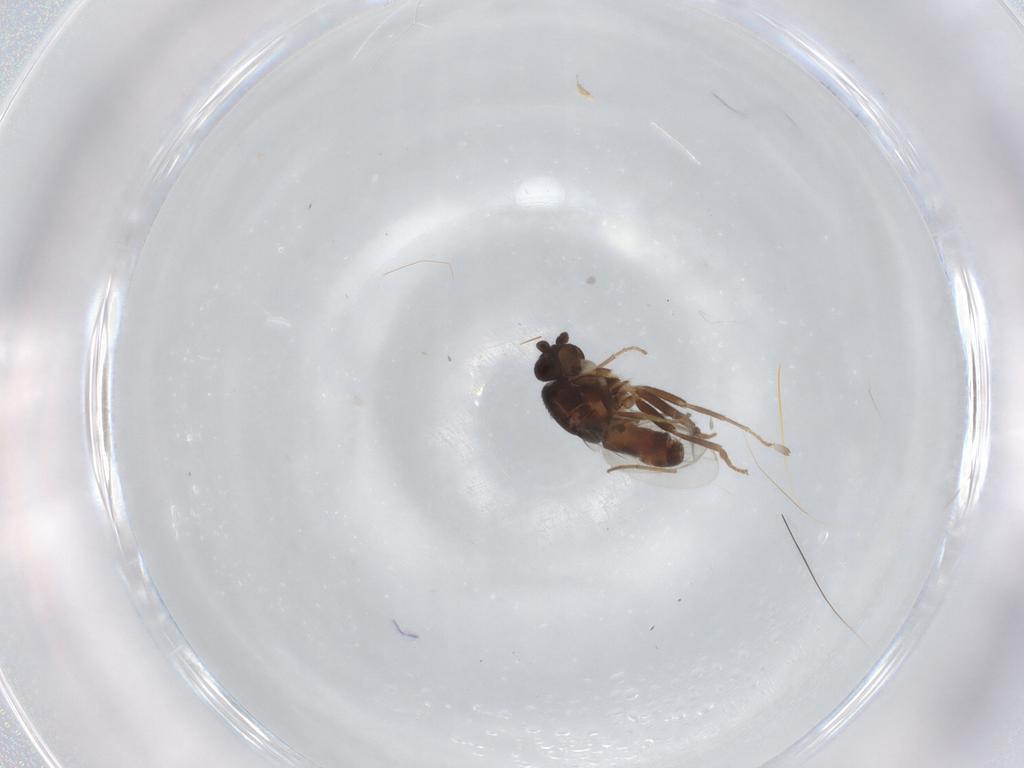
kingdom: Animalia
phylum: Arthropoda
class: Insecta
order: Diptera
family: Sphaeroceridae
